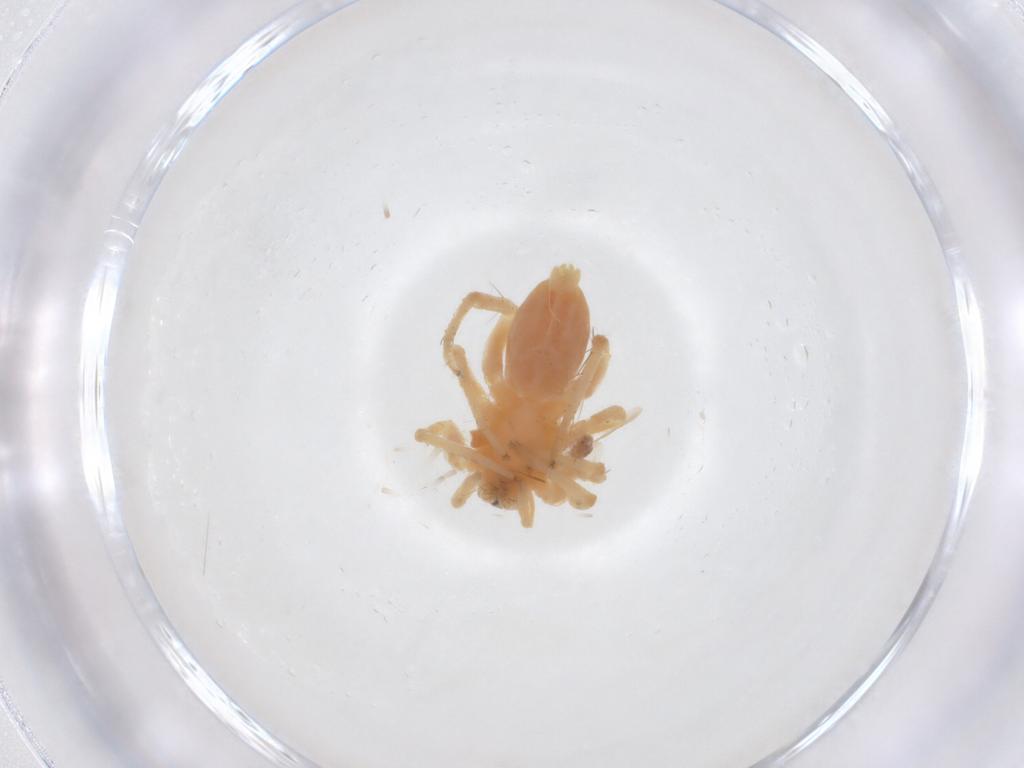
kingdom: Animalia
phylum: Arthropoda
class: Arachnida
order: Araneae
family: Anyphaenidae
